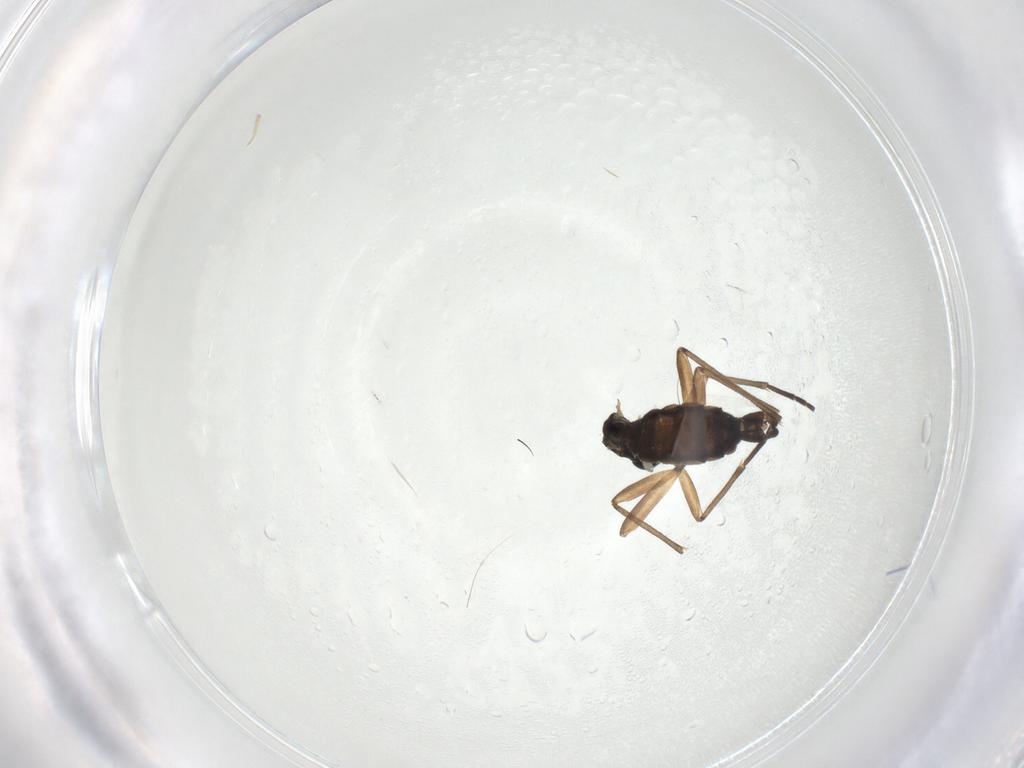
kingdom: Animalia
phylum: Arthropoda
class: Insecta
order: Diptera
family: Sciaridae
